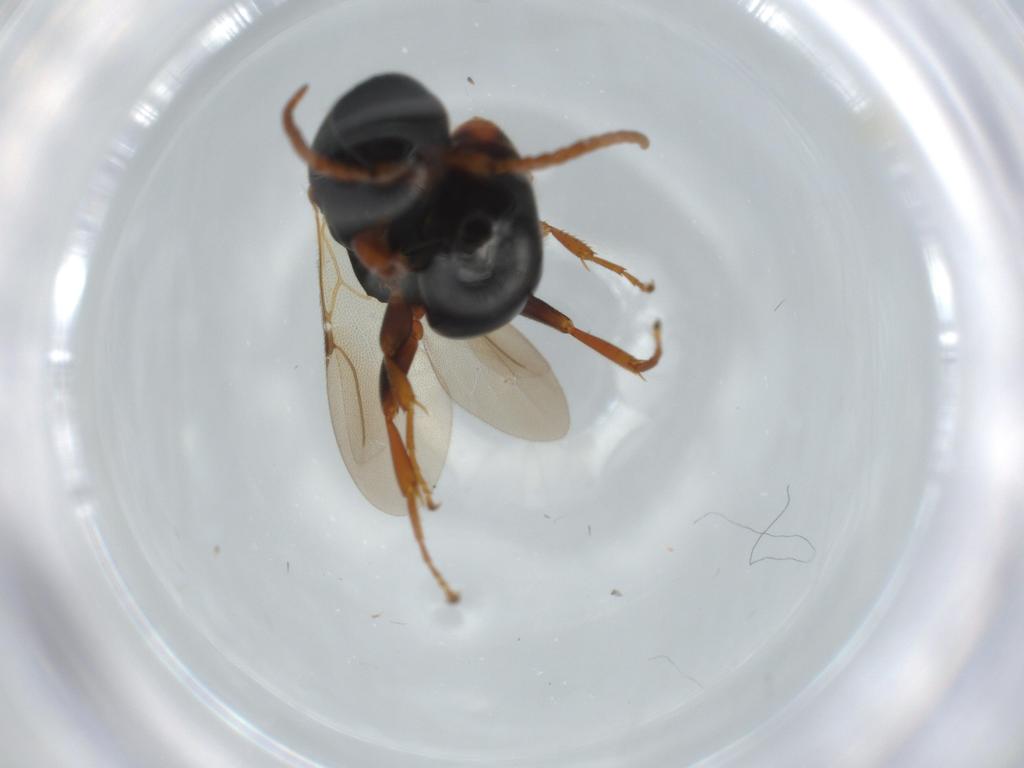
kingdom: Animalia
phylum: Arthropoda
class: Insecta
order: Hymenoptera
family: Bethylidae
